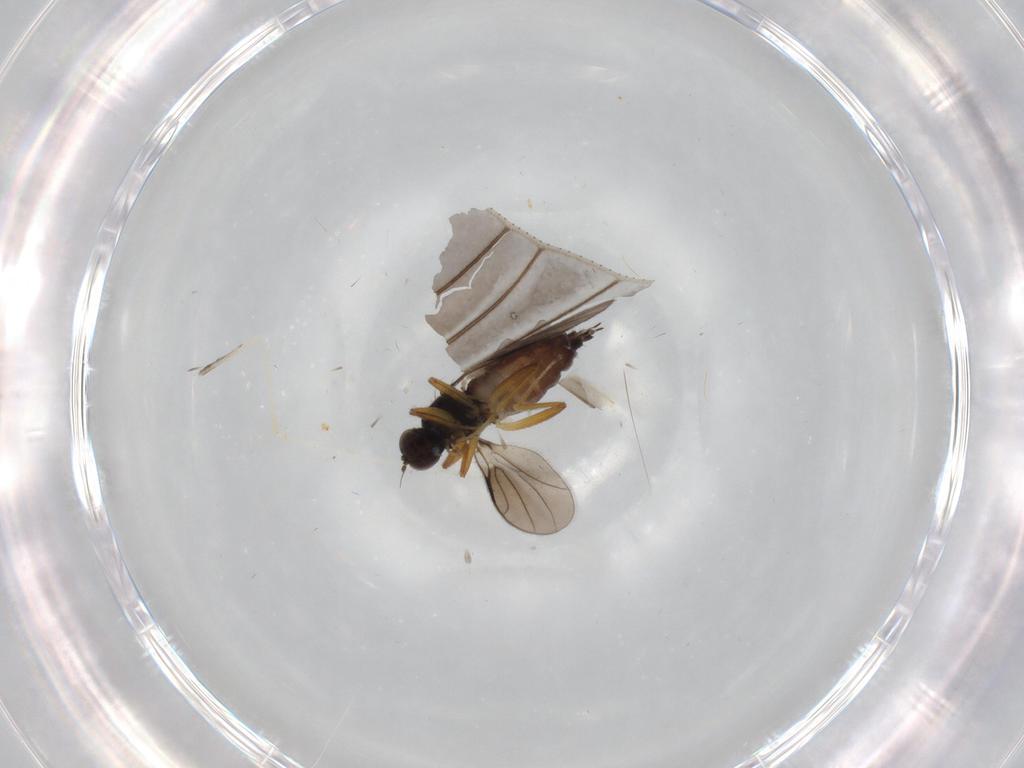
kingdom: Animalia
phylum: Arthropoda
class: Insecta
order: Diptera
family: Hybotidae
